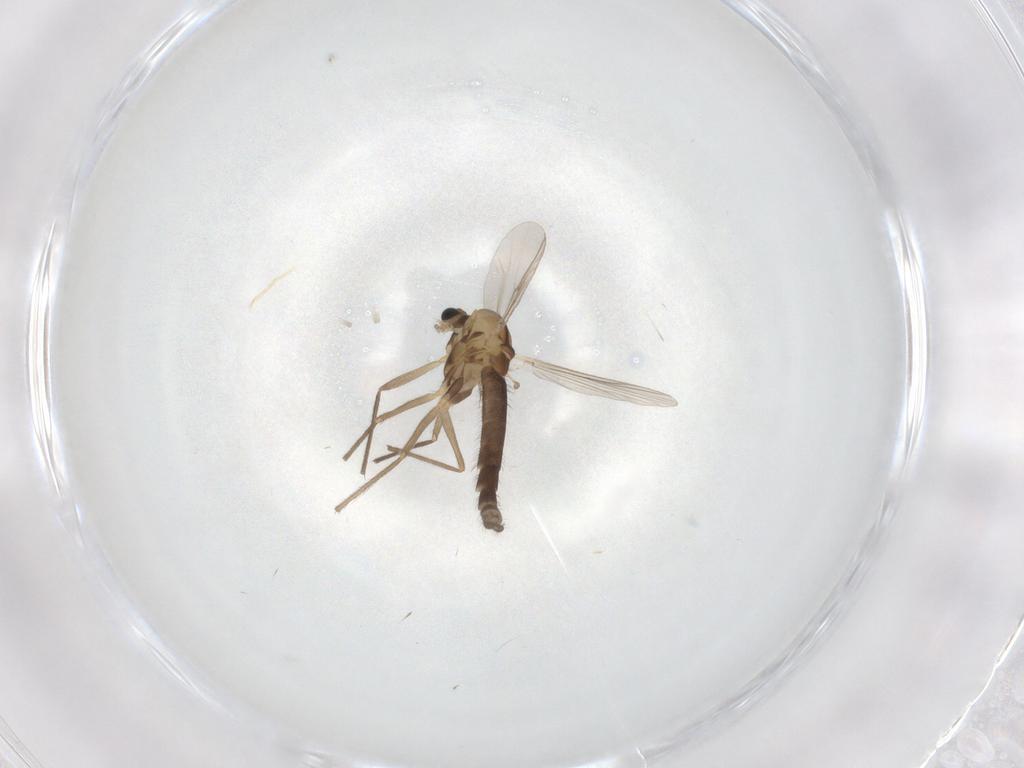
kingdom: Animalia
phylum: Arthropoda
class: Insecta
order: Diptera
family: Chironomidae
